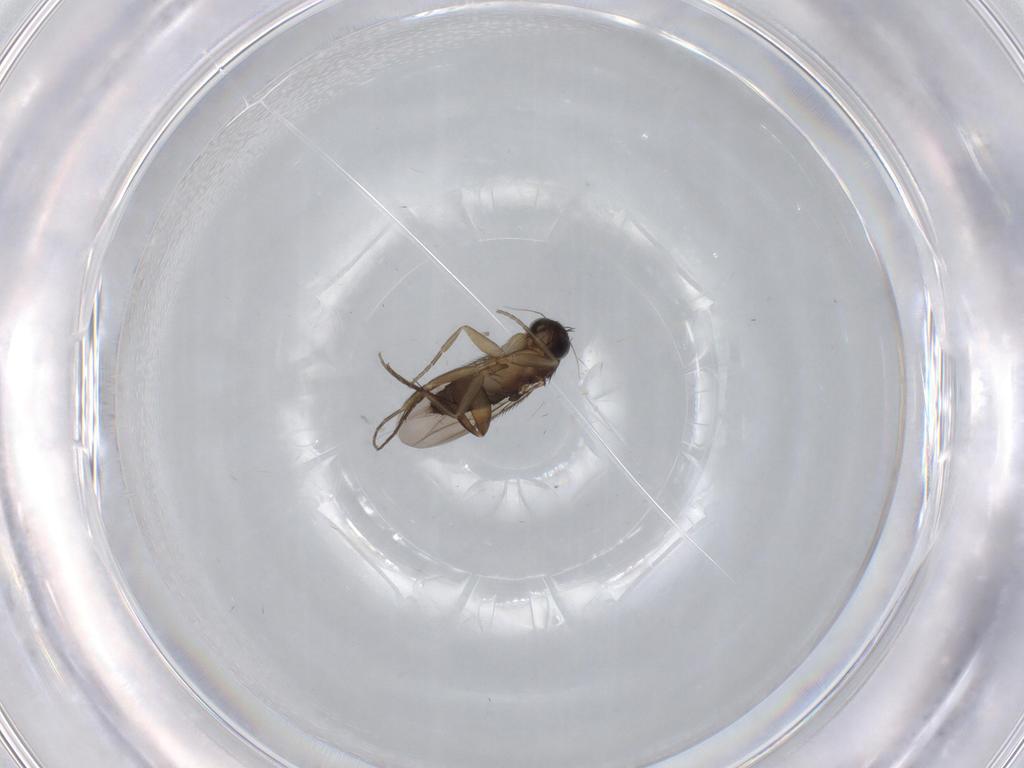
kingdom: Animalia
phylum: Arthropoda
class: Insecta
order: Diptera
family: Phoridae
